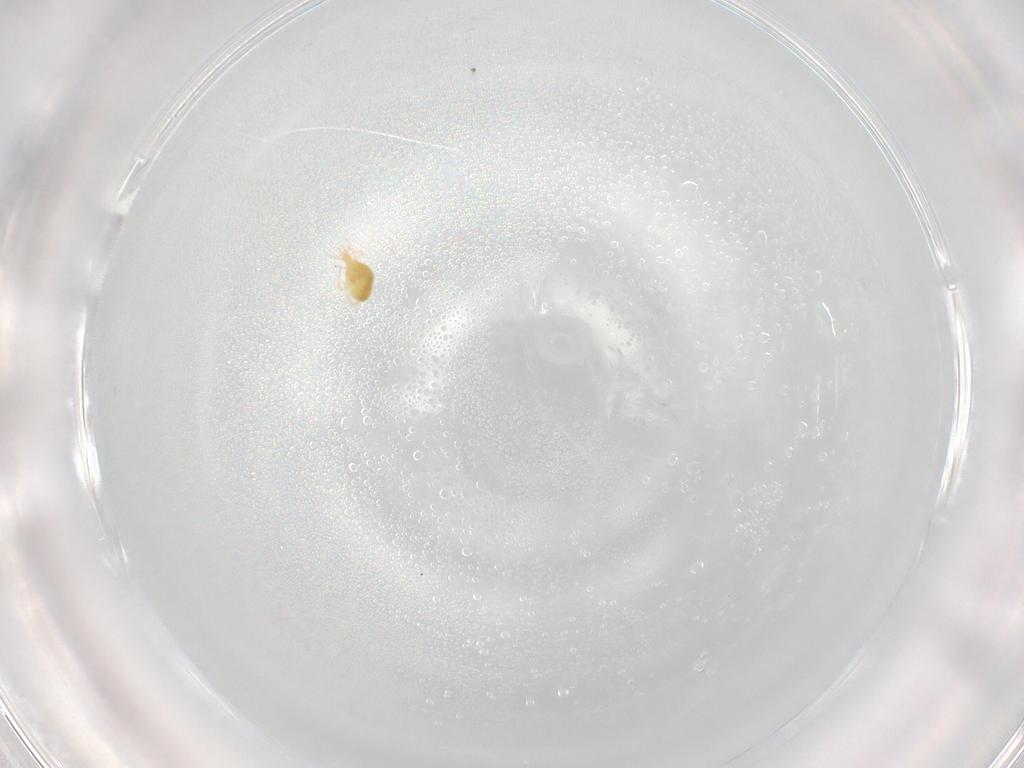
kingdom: Animalia
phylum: Arthropoda
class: Arachnida
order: Trombidiformes
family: Cunaxidae
